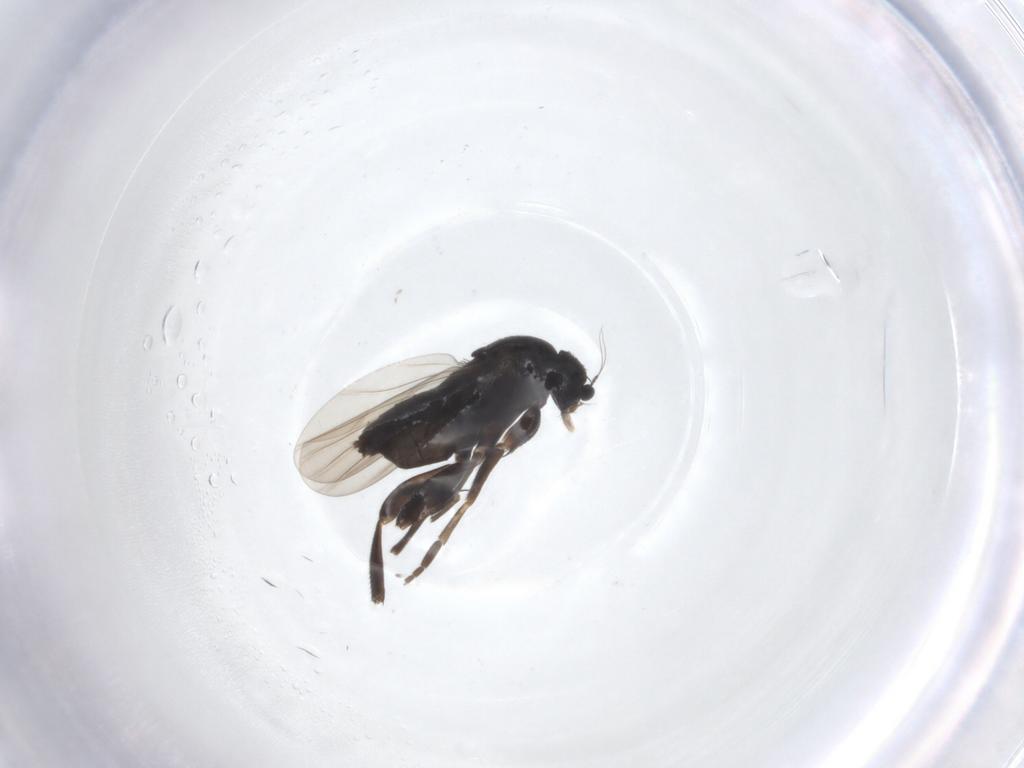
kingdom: Animalia
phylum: Arthropoda
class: Insecta
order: Diptera
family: Phoridae
